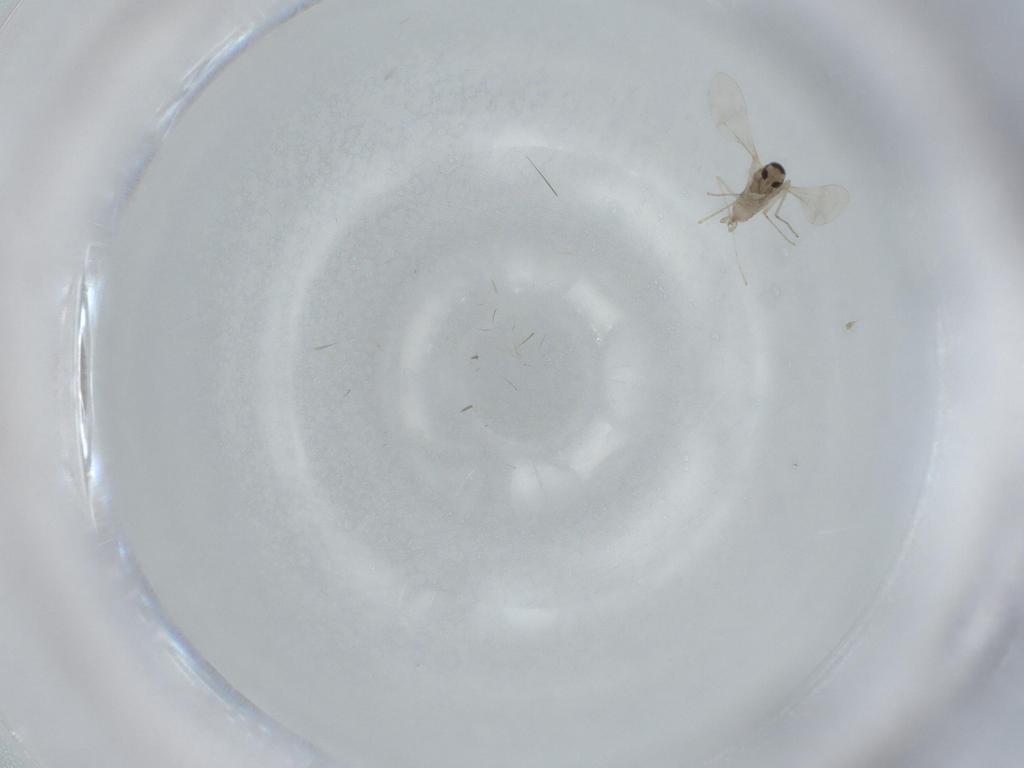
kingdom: Animalia
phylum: Arthropoda
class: Insecta
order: Diptera
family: Cecidomyiidae
